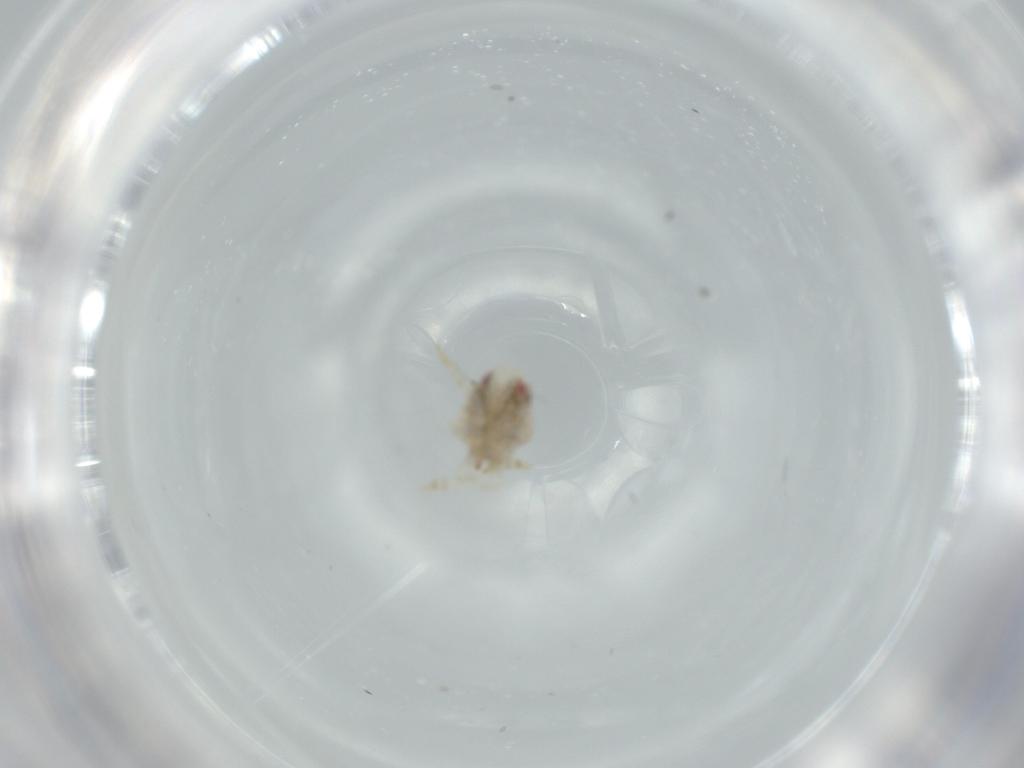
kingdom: Animalia
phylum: Arthropoda
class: Insecta
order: Hemiptera
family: Acanaloniidae
